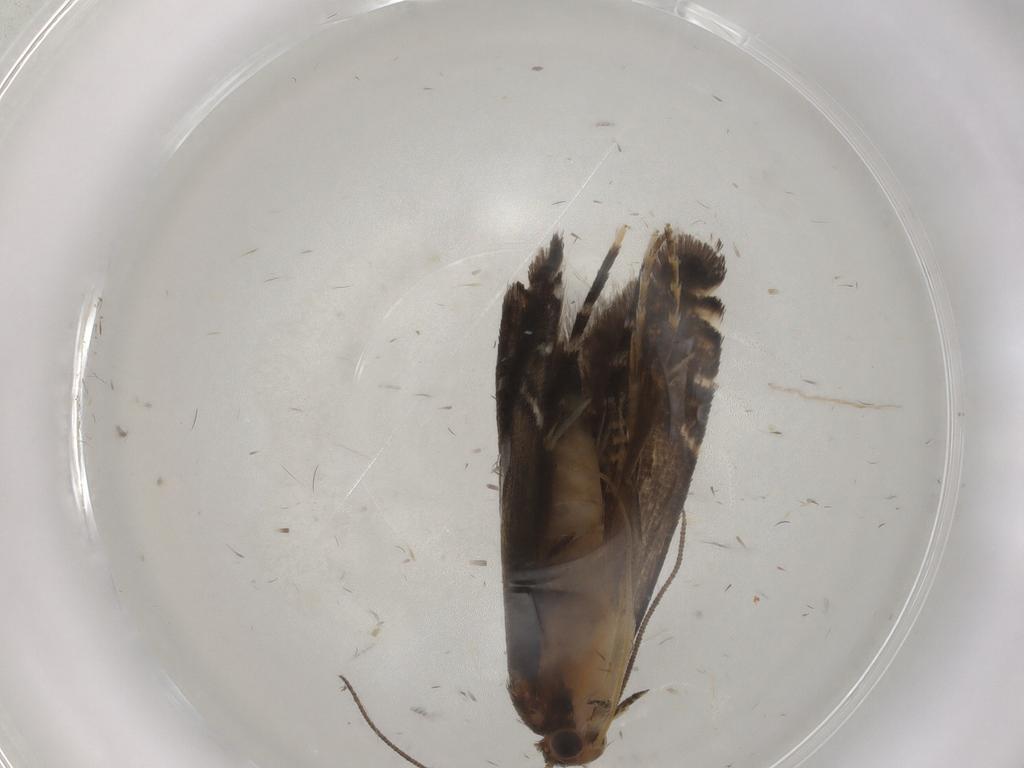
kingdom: Animalia
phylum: Arthropoda
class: Insecta
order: Lepidoptera
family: Glyphipterigidae
